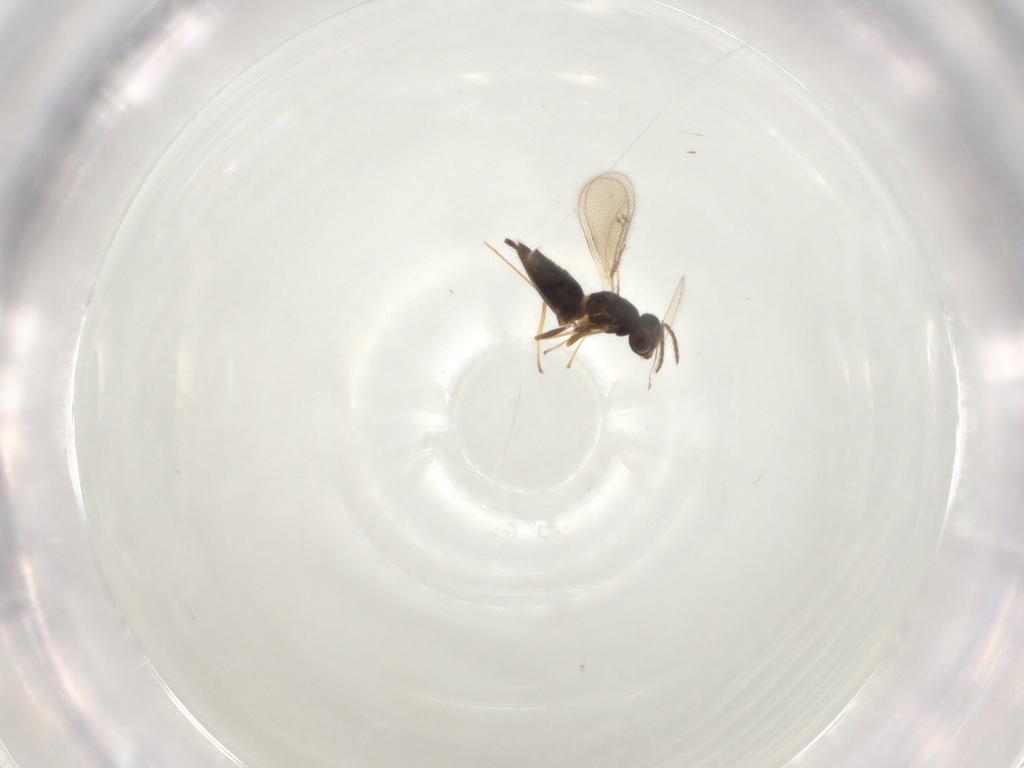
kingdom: Animalia
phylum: Arthropoda
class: Insecta
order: Hymenoptera
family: Eulophidae
